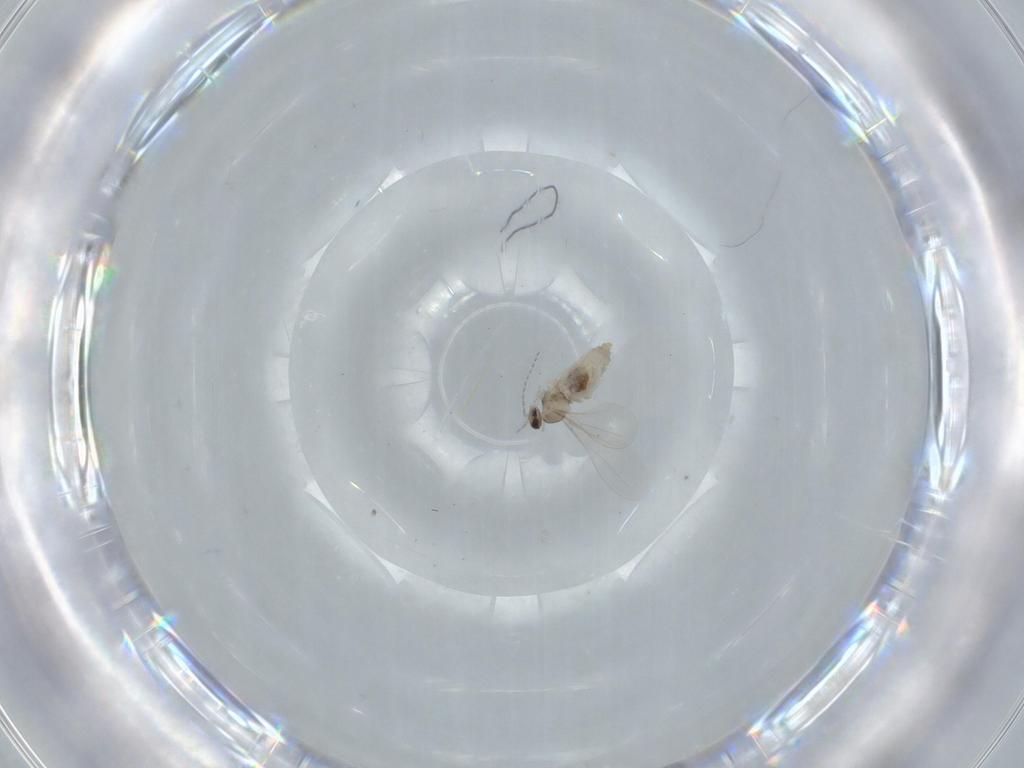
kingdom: Animalia
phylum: Arthropoda
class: Insecta
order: Diptera
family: Cecidomyiidae
